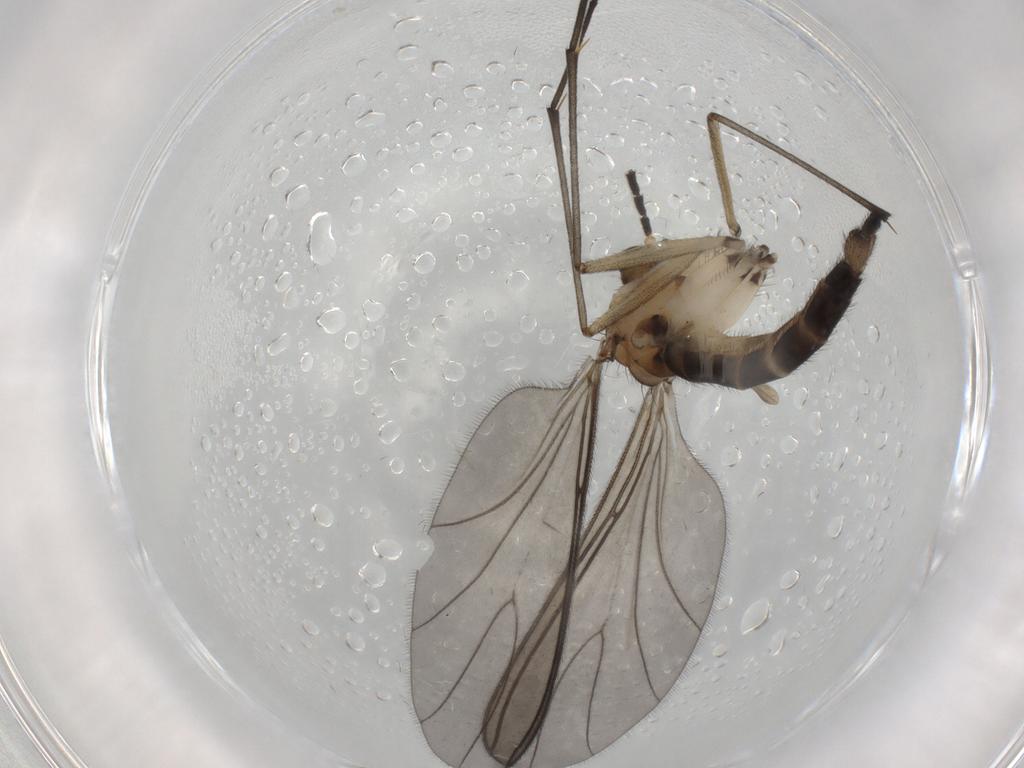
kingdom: Animalia
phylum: Arthropoda
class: Insecta
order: Diptera
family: Sciaridae
